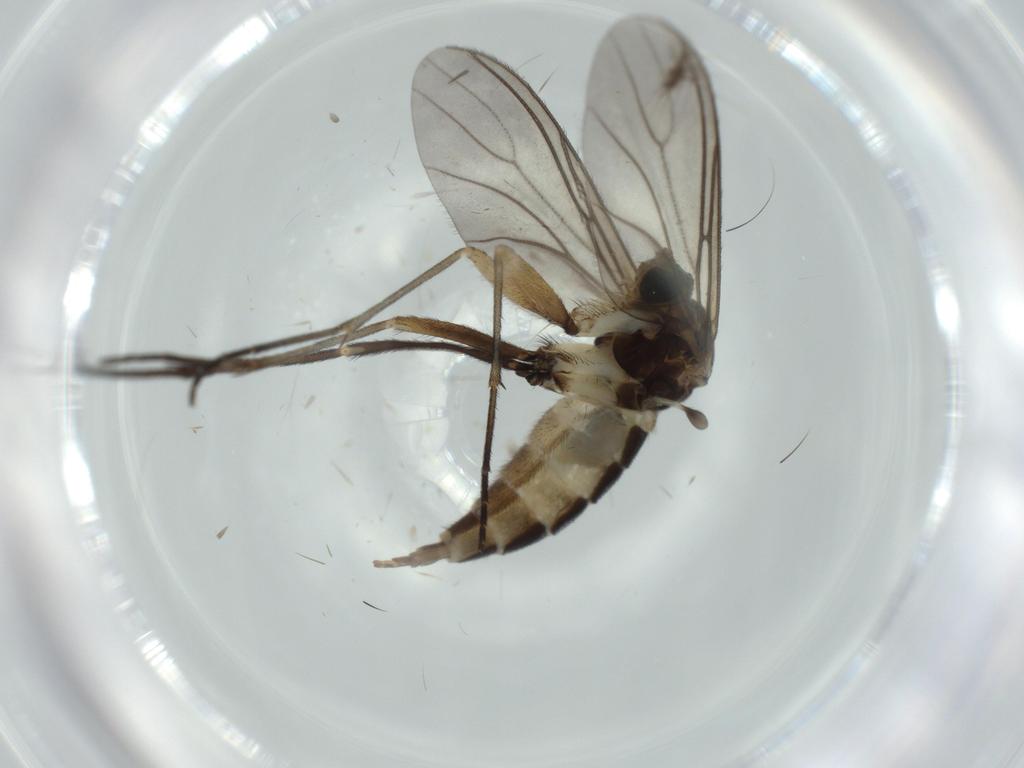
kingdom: Animalia
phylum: Arthropoda
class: Insecta
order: Diptera
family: Sciaridae
